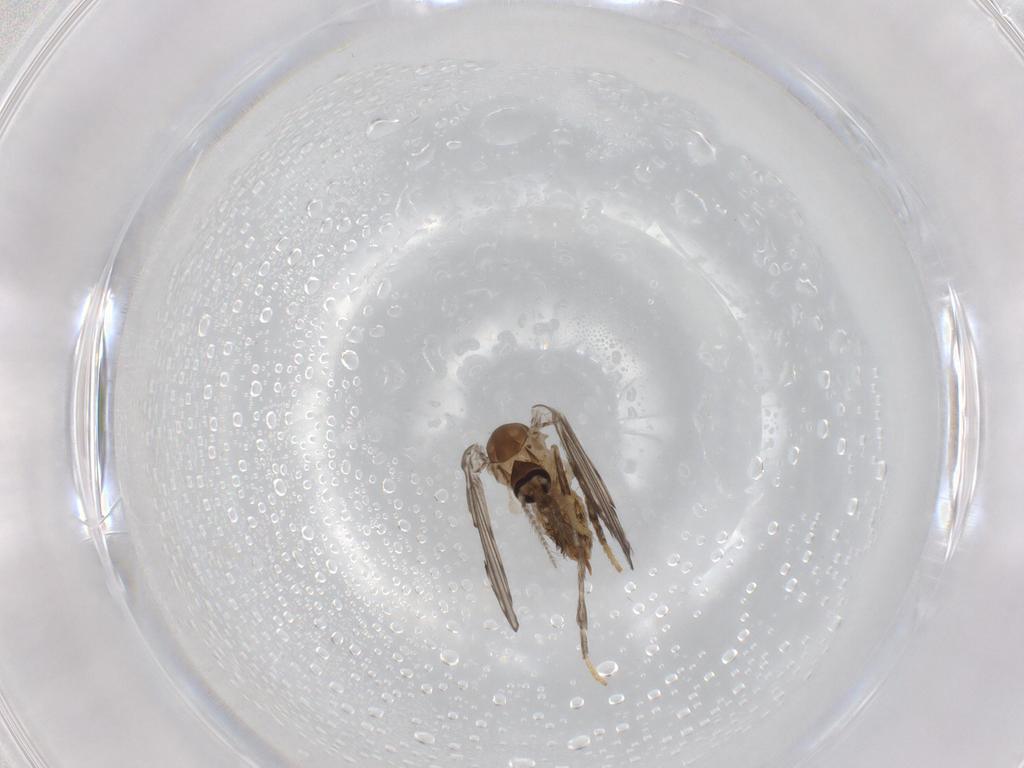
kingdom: Animalia
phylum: Arthropoda
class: Insecta
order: Diptera
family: Psychodidae
